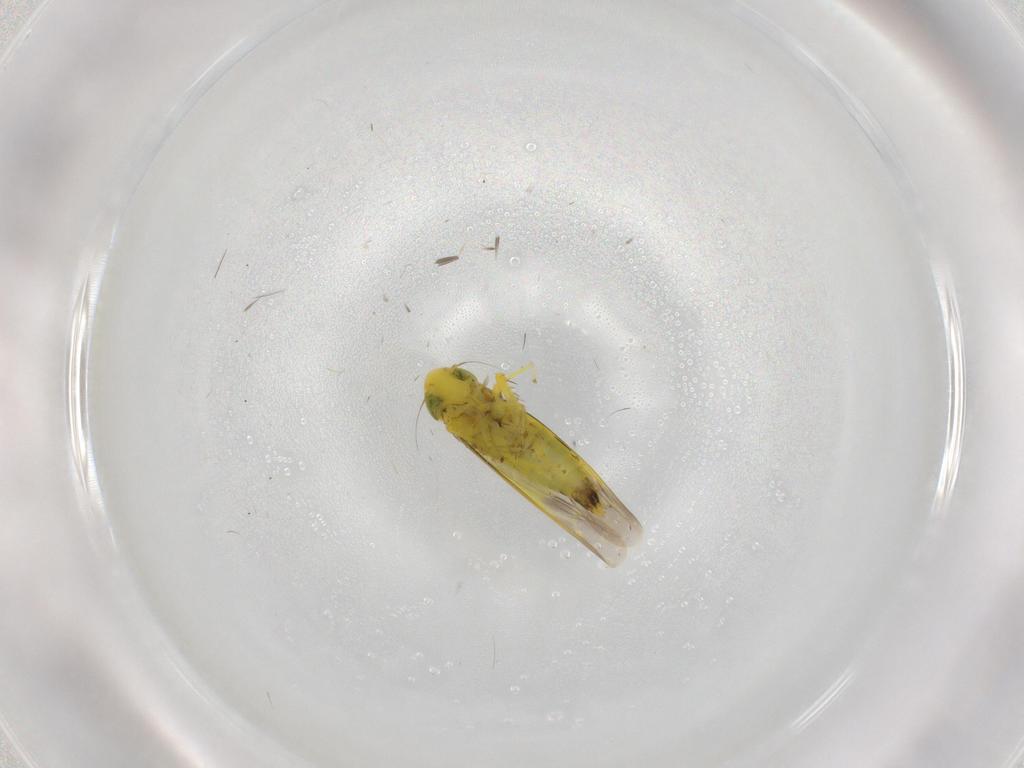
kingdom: Animalia
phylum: Arthropoda
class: Insecta
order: Hemiptera
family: Cicadellidae
